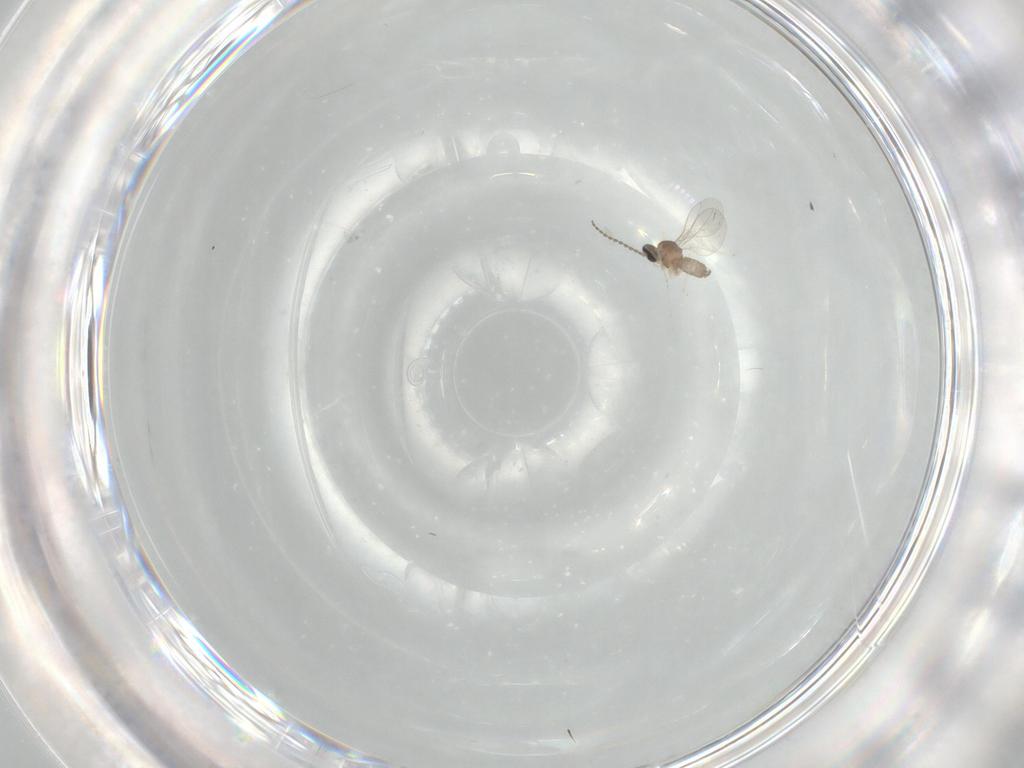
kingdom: Animalia
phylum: Arthropoda
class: Insecta
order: Diptera
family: Cecidomyiidae
